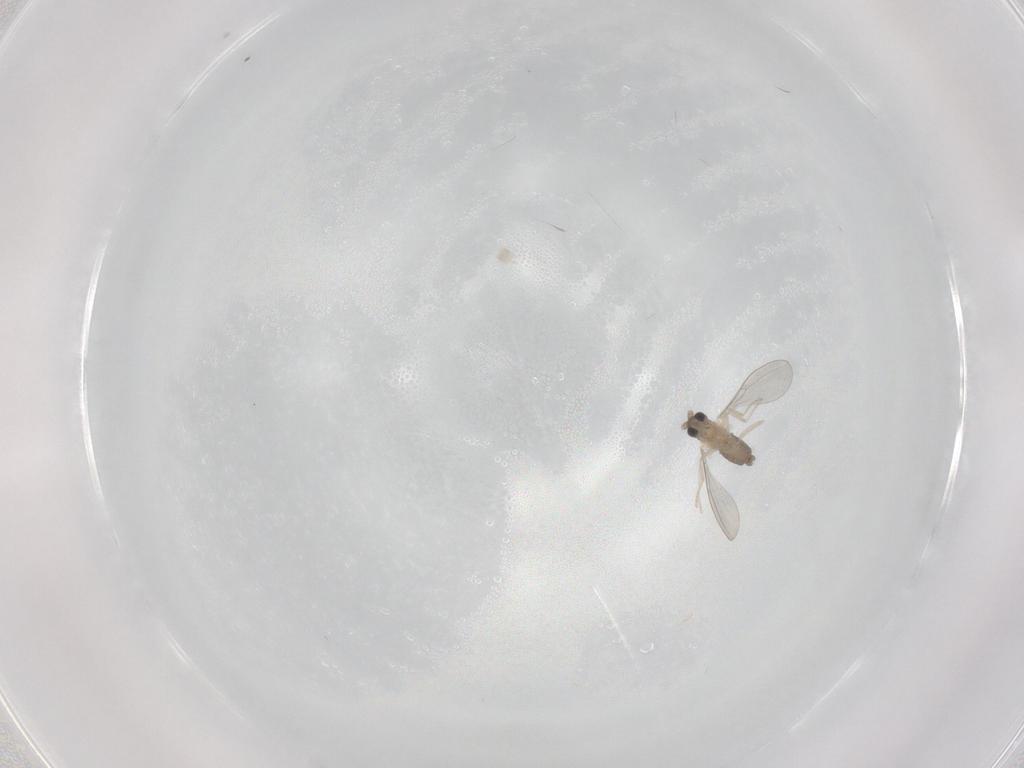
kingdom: Animalia
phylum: Arthropoda
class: Insecta
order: Diptera
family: Cecidomyiidae
